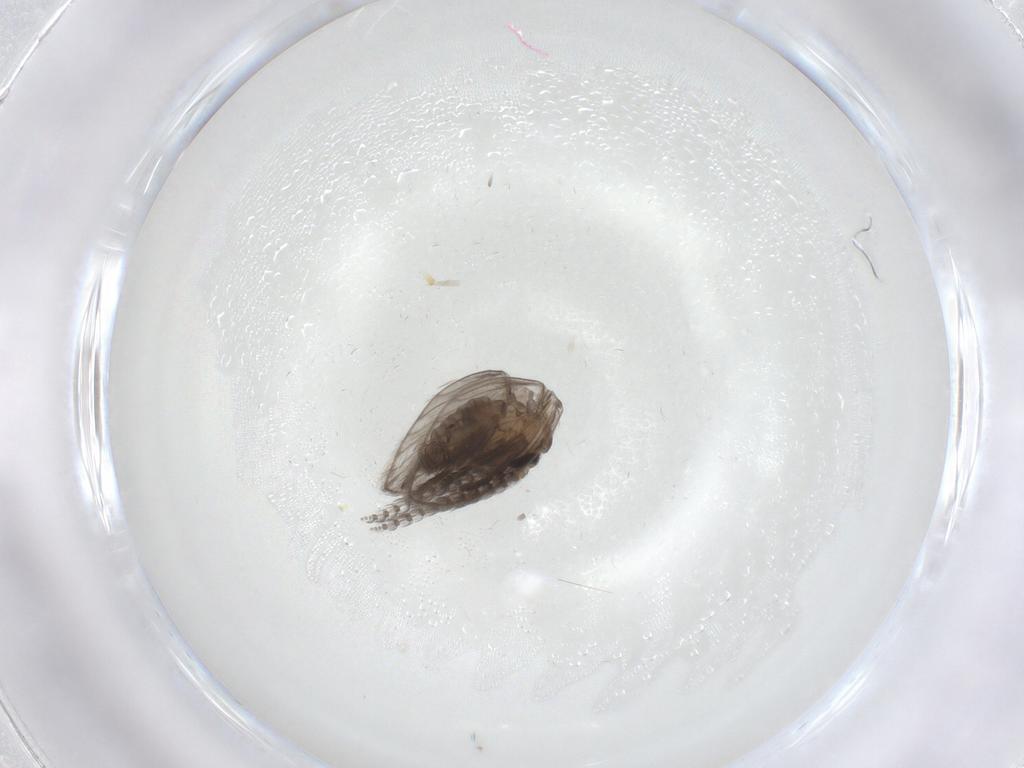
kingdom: Animalia
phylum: Arthropoda
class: Insecta
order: Diptera
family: Psychodidae
